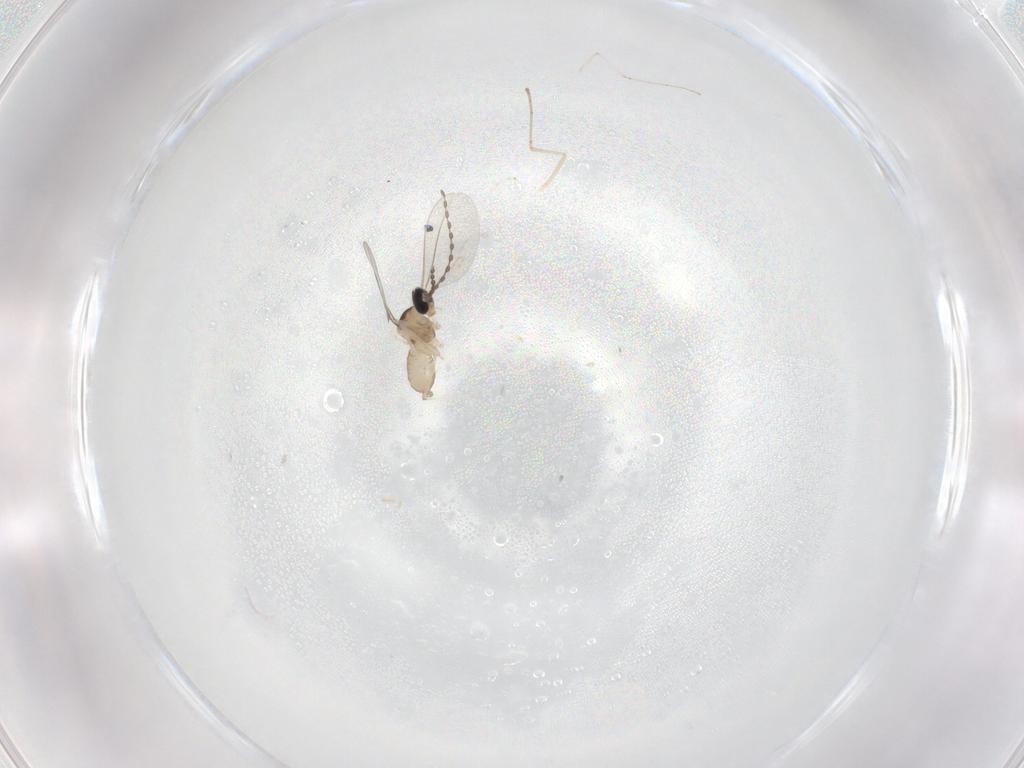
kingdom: Animalia
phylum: Arthropoda
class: Insecta
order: Diptera
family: Cecidomyiidae
